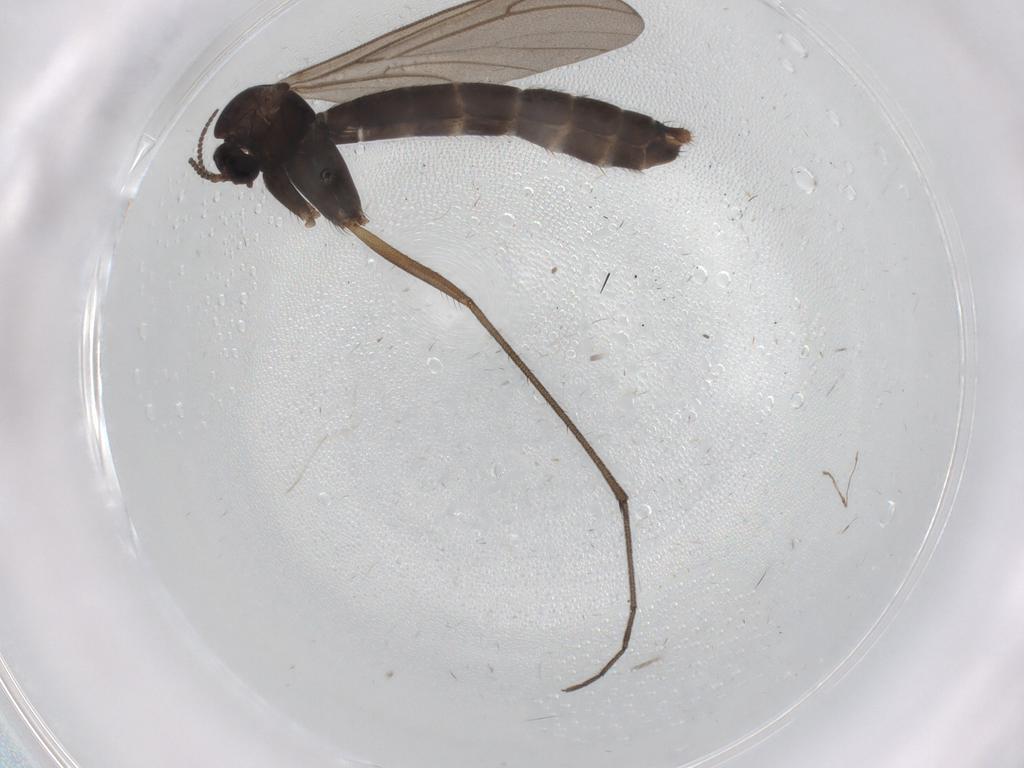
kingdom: Animalia
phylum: Arthropoda
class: Insecta
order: Diptera
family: Ditomyiidae
